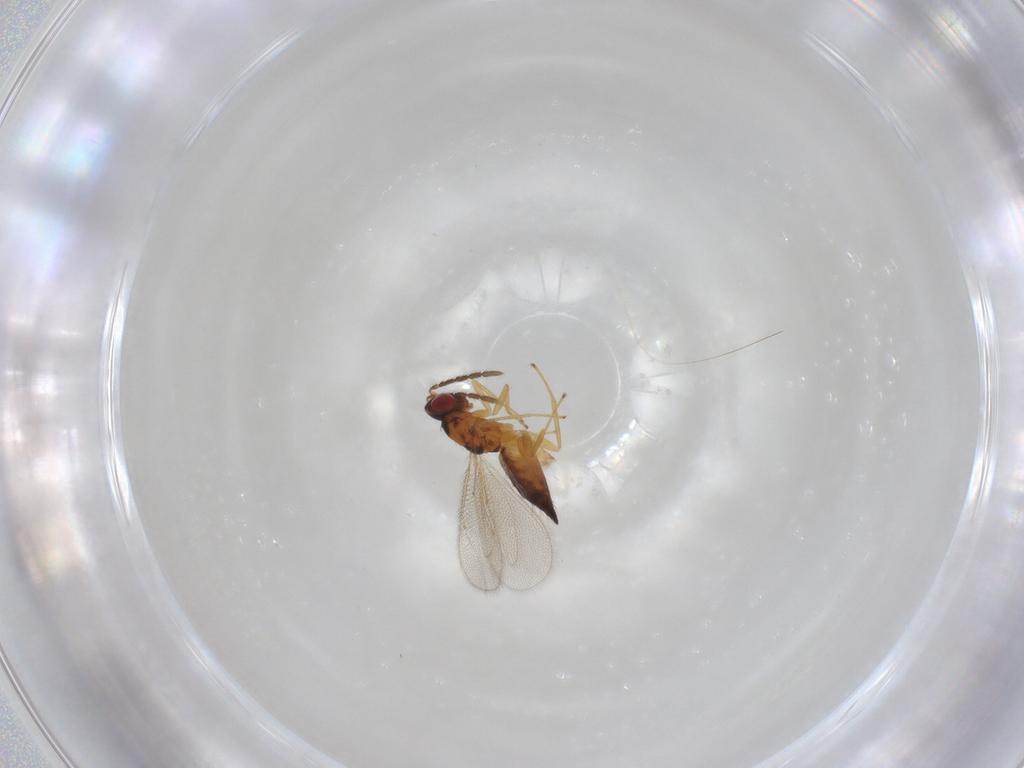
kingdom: Animalia
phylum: Arthropoda
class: Insecta
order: Hymenoptera
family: Eulophidae
